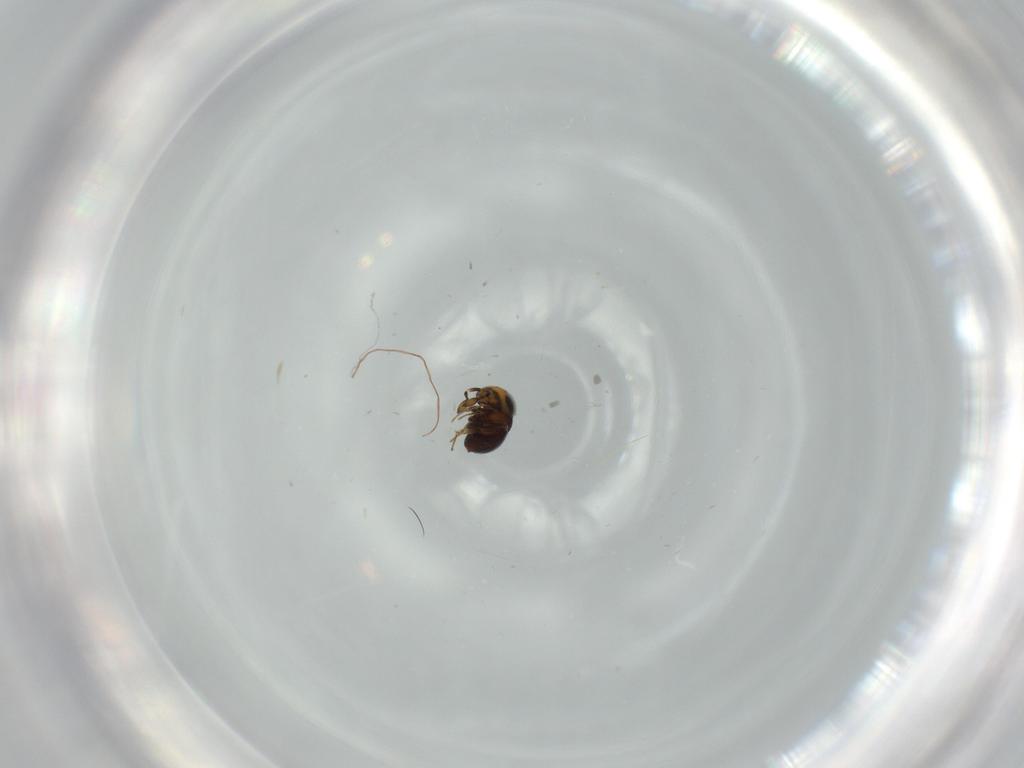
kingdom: Animalia
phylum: Arthropoda
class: Insecta
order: Hymenoptera
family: Scelionidae
